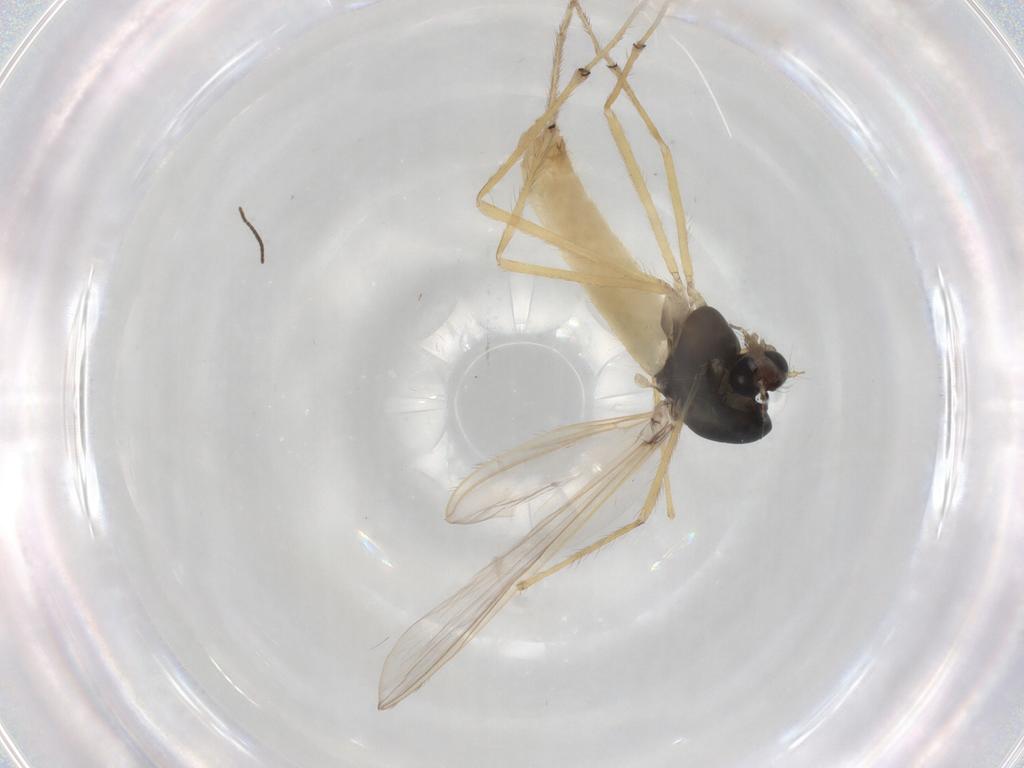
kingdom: Animalia
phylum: Arthropoda
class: Insecta
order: Diptera
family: Chironomidae
